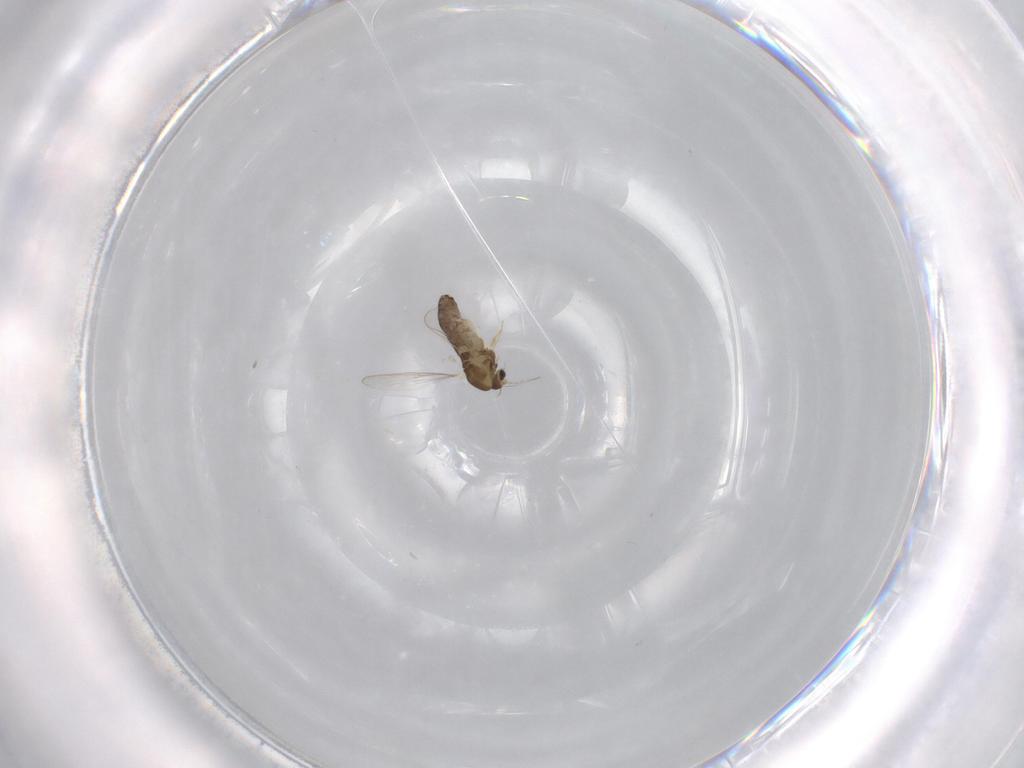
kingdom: Animalia
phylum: Arthropoda
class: Insecta
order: Diptera
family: Chironomidae
